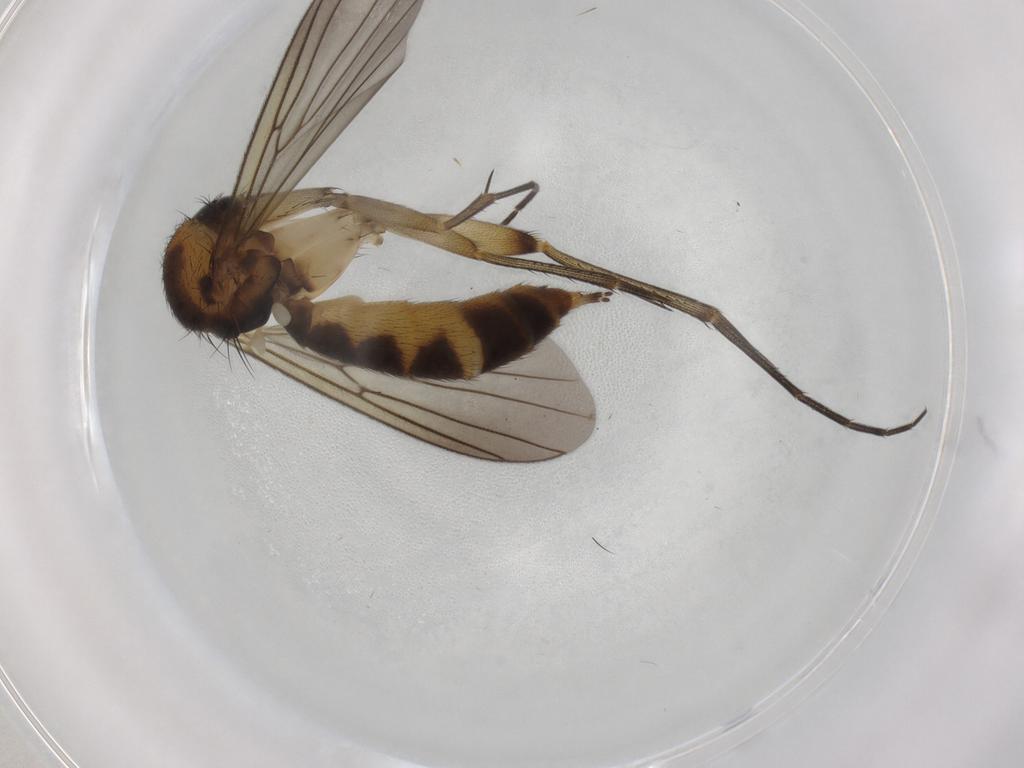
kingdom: Animalia
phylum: Arthropoda
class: Insecta
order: Diptera
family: Mycetophilidae
